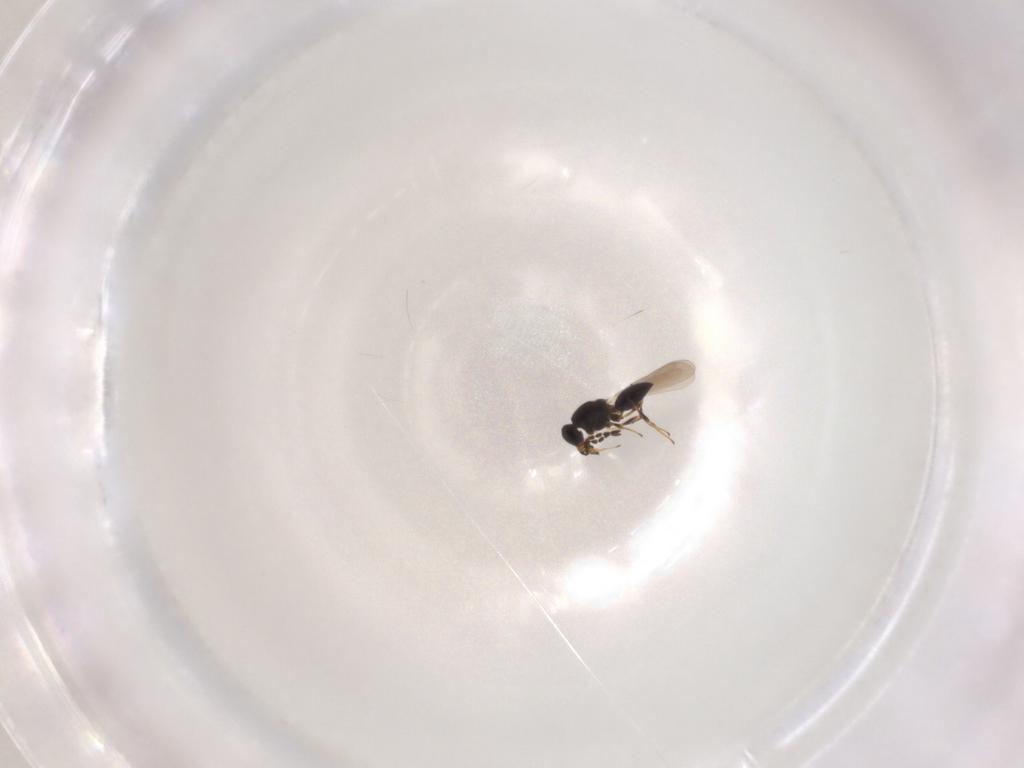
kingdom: Animalia
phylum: Arthropoda
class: Insecta
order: Hymenoptera
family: Platygastridae
